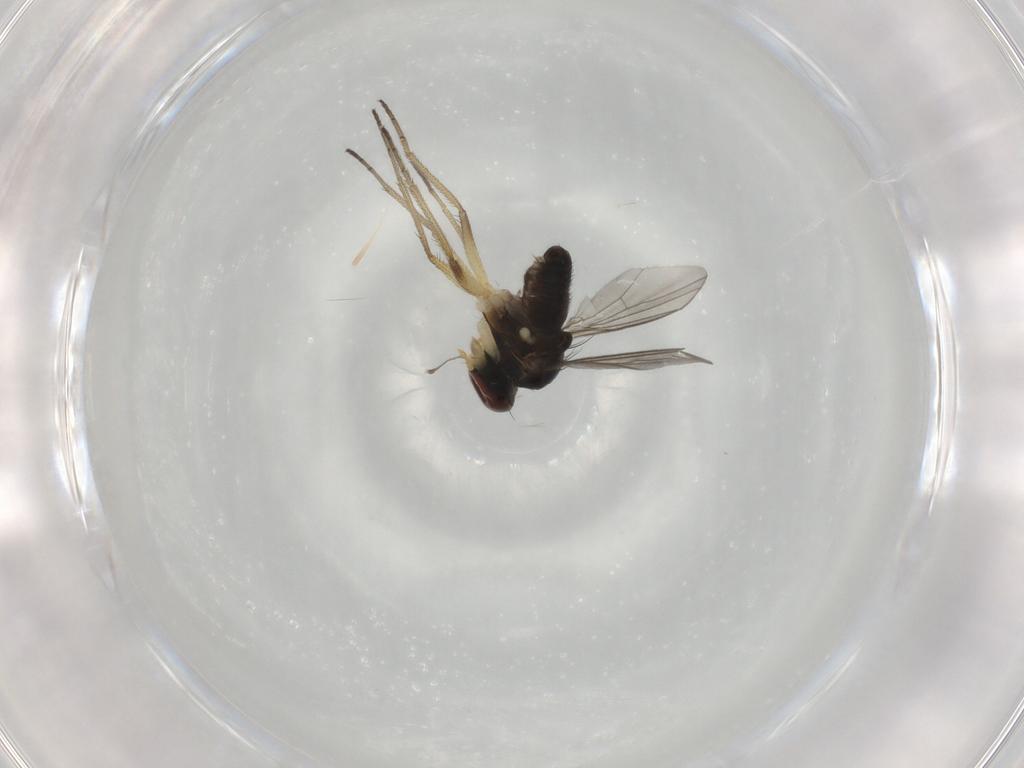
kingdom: Animalia
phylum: Arthropoda
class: Insecta
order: Diptera
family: Dolichopodidae
